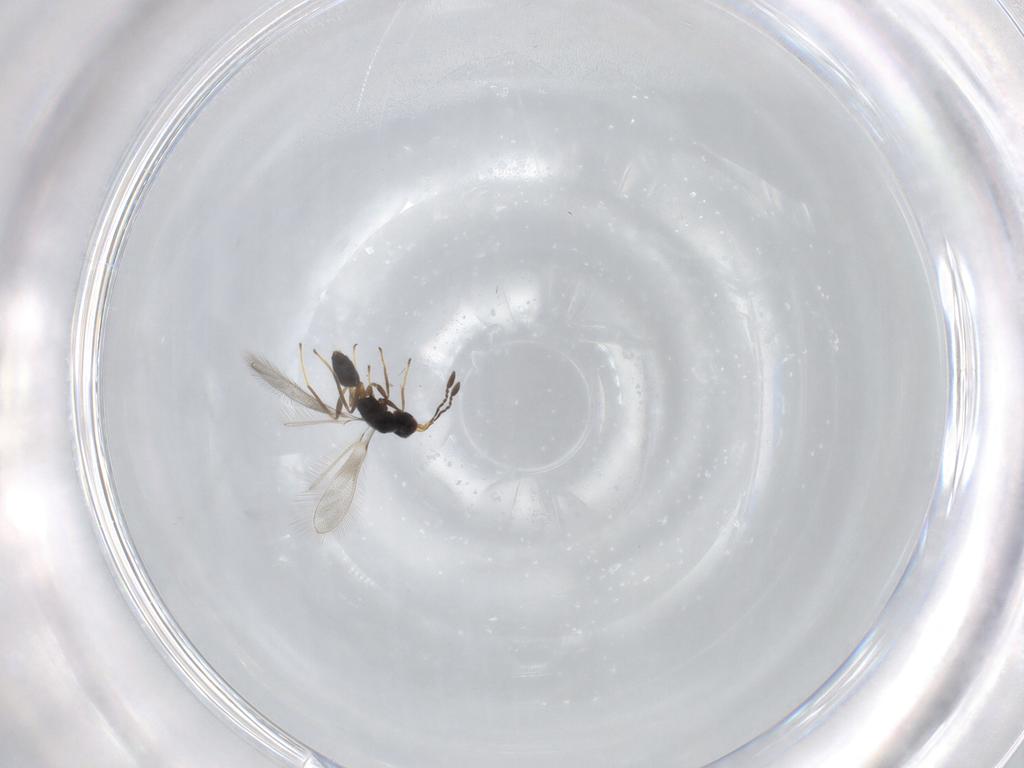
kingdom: Animalia
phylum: Arthropoda
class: Insecta
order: Hymenoptera
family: Mymaridae
